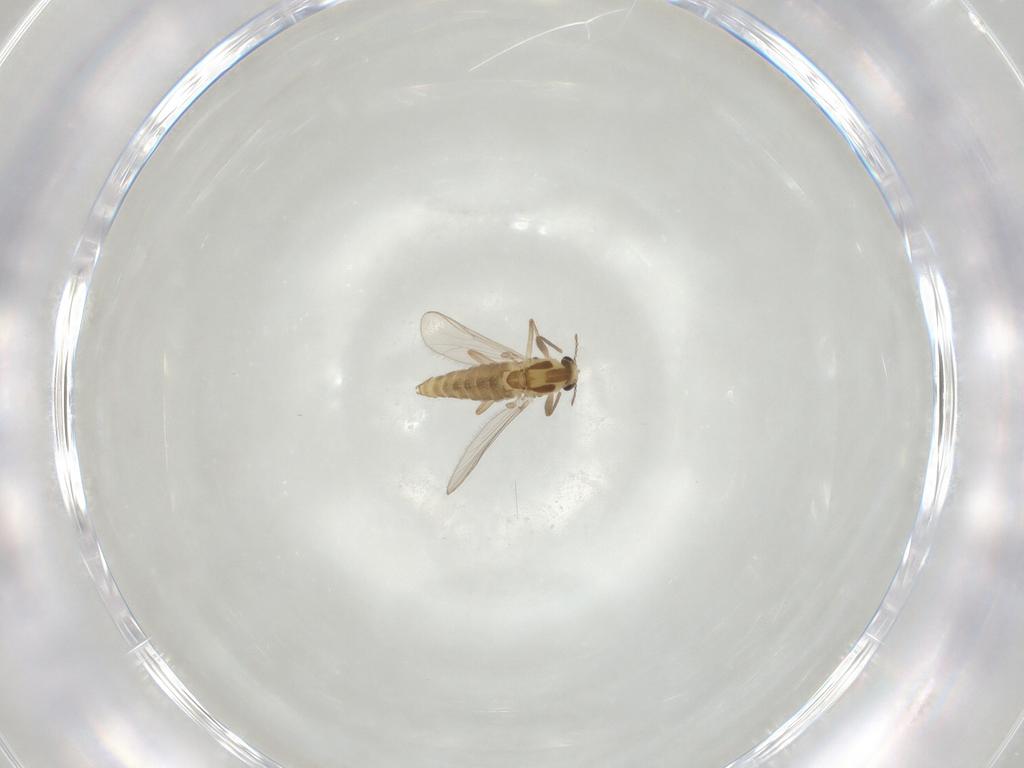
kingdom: Animalia
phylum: Arthropoda
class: Insecta
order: Diptera
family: Chironomidae
